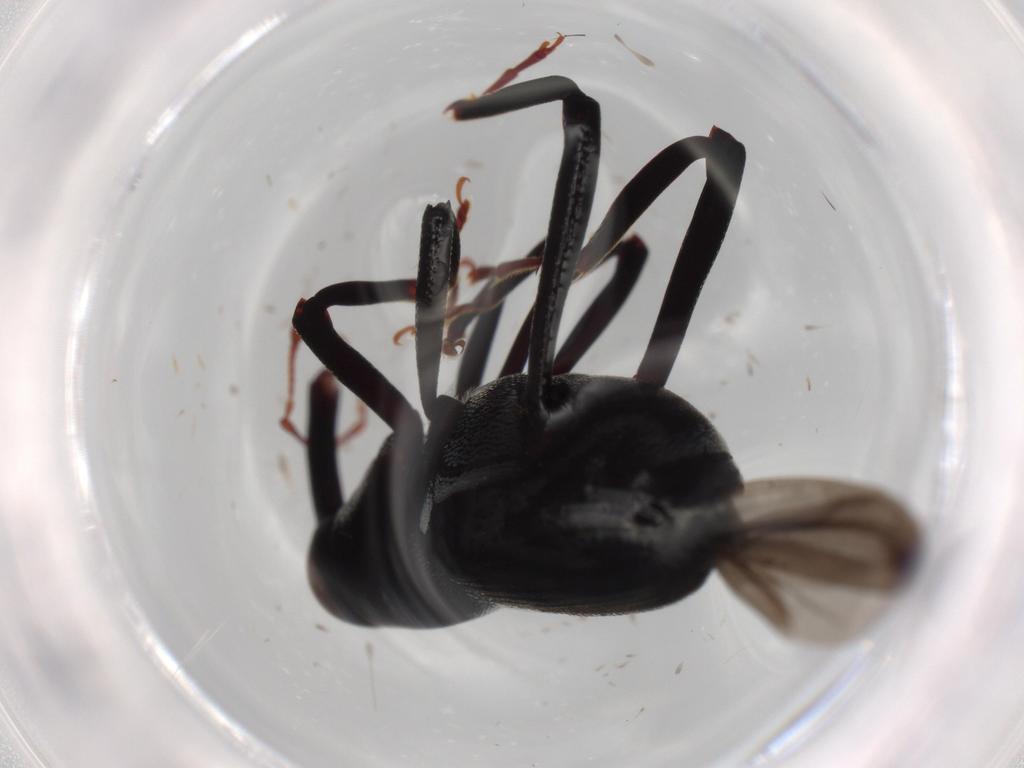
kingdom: Animalia
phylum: Arthropoda
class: Insecta
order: Coleoptera
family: Curculionidae
